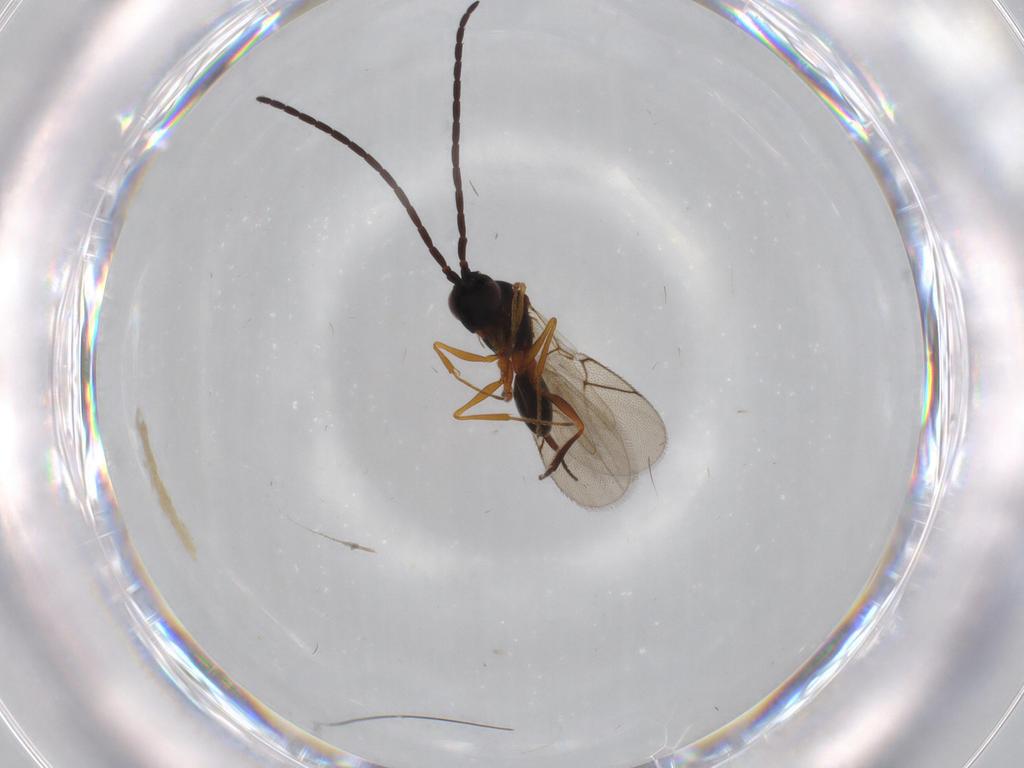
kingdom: Animalia
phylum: Arthropoda
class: Insecta
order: Hymenoptera
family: Figitidae
